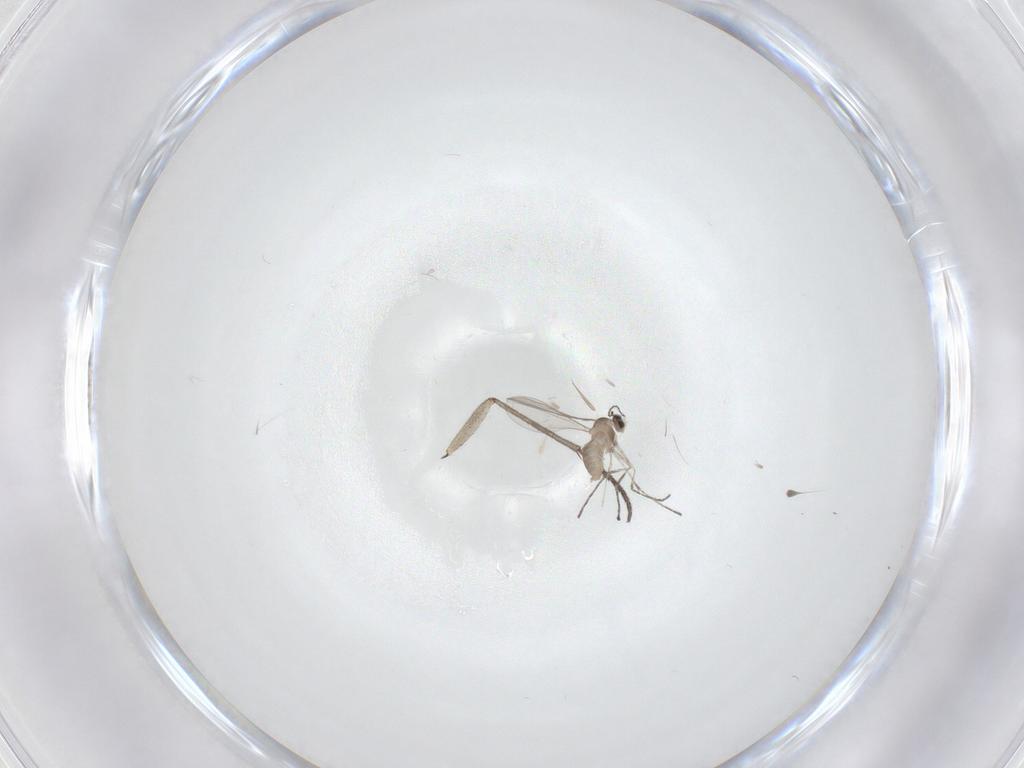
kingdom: Animalia
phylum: Arthropoda
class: Insecta
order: Diptera
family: Cecidomyiidae
